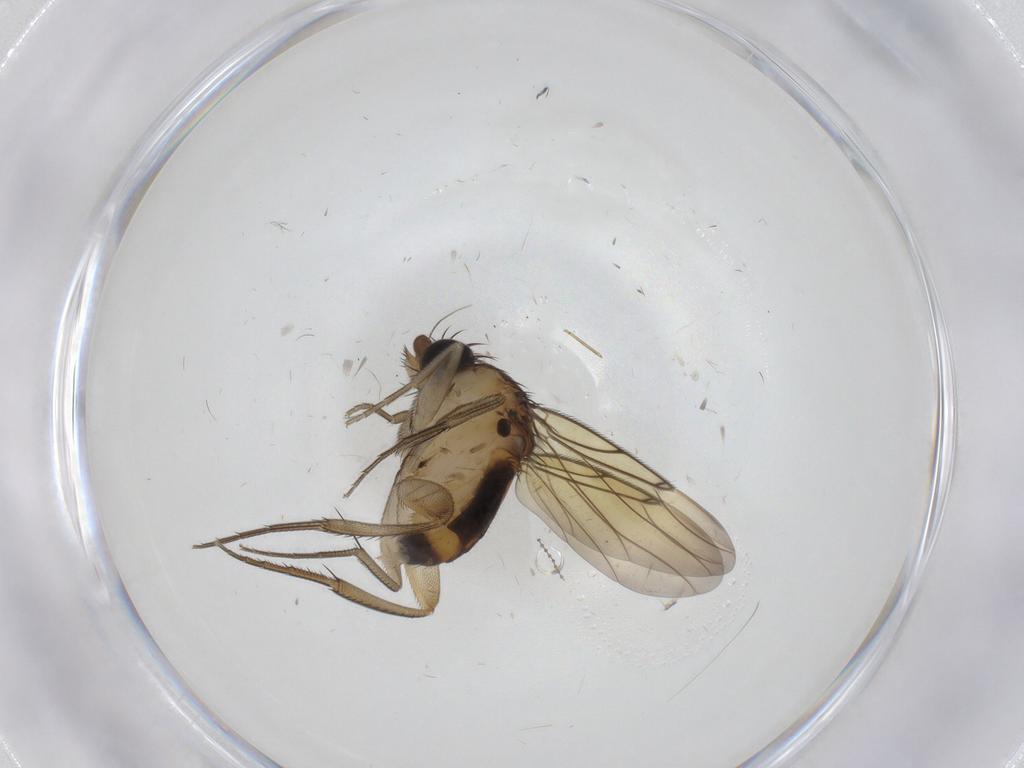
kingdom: Animalia
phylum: Arthropoda
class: Insecta
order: Diptera
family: Chironomidae
